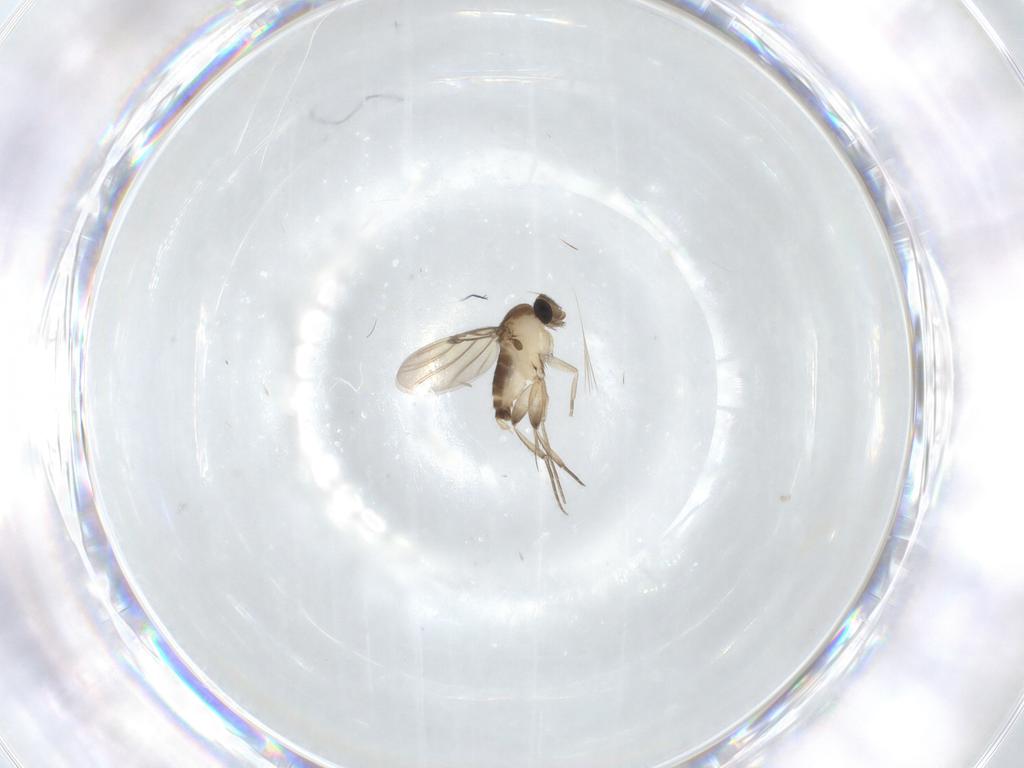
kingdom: Animalia
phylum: Arthropoda
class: Insecta
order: Diptera
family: Phoridae
